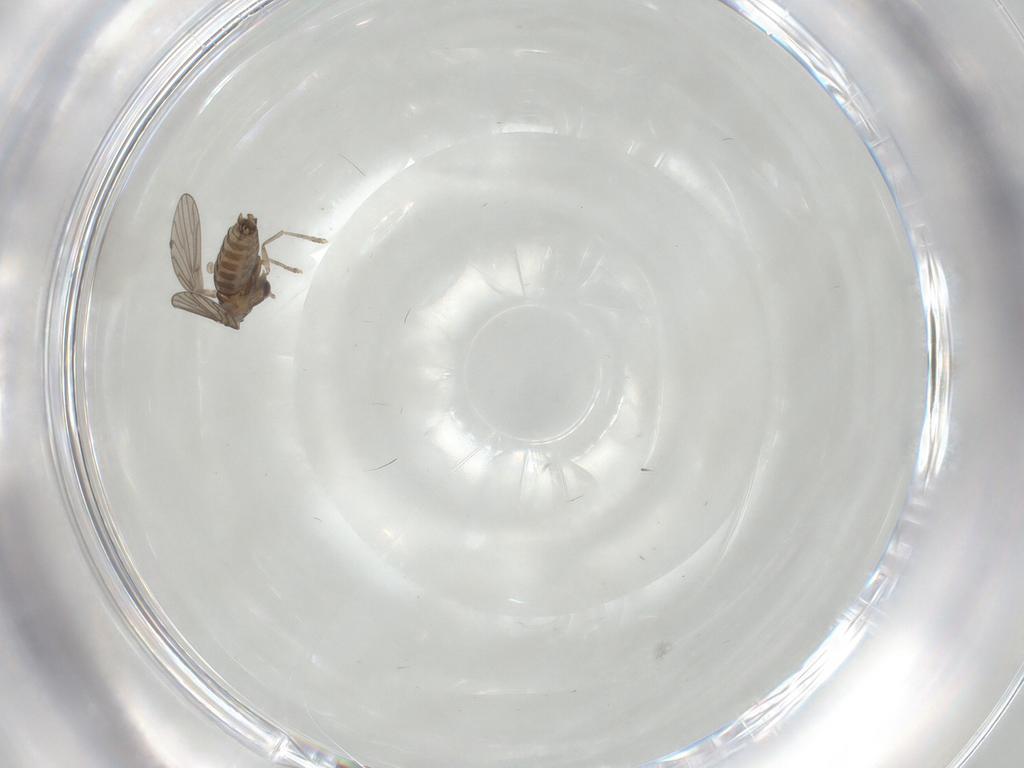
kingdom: Animalia
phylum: Arthropoda
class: Insecta
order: Diptera
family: Psychodidae
